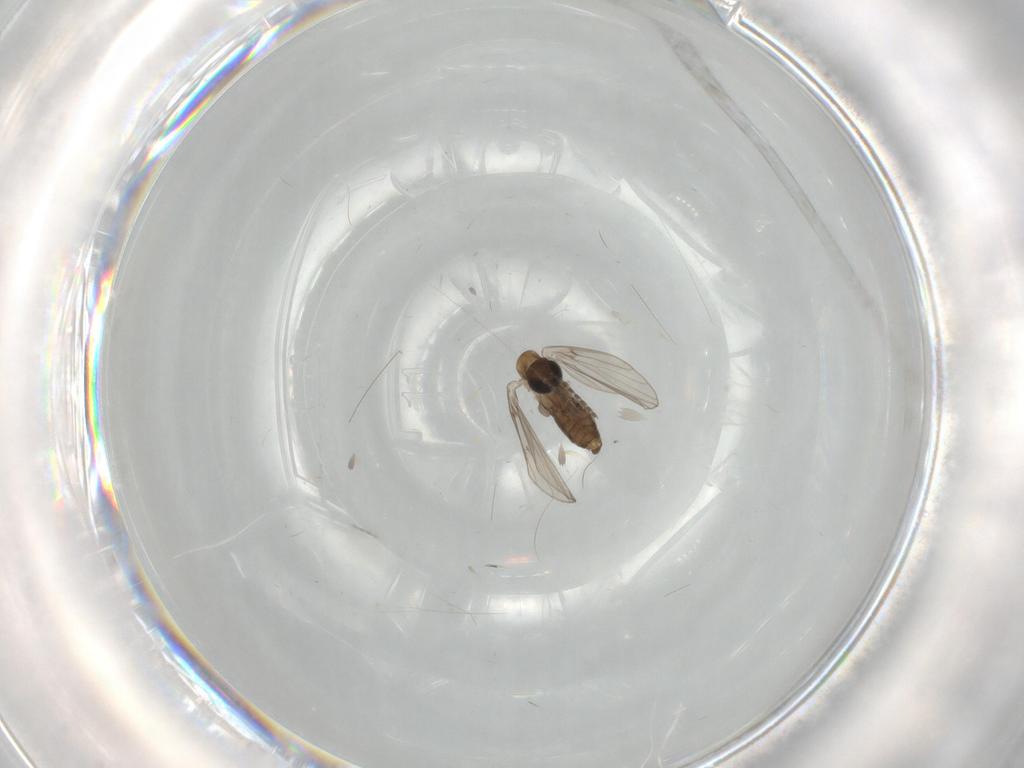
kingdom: Animalia
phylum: Arthropoda
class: Insecta
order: Diptera
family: Psychodidae
